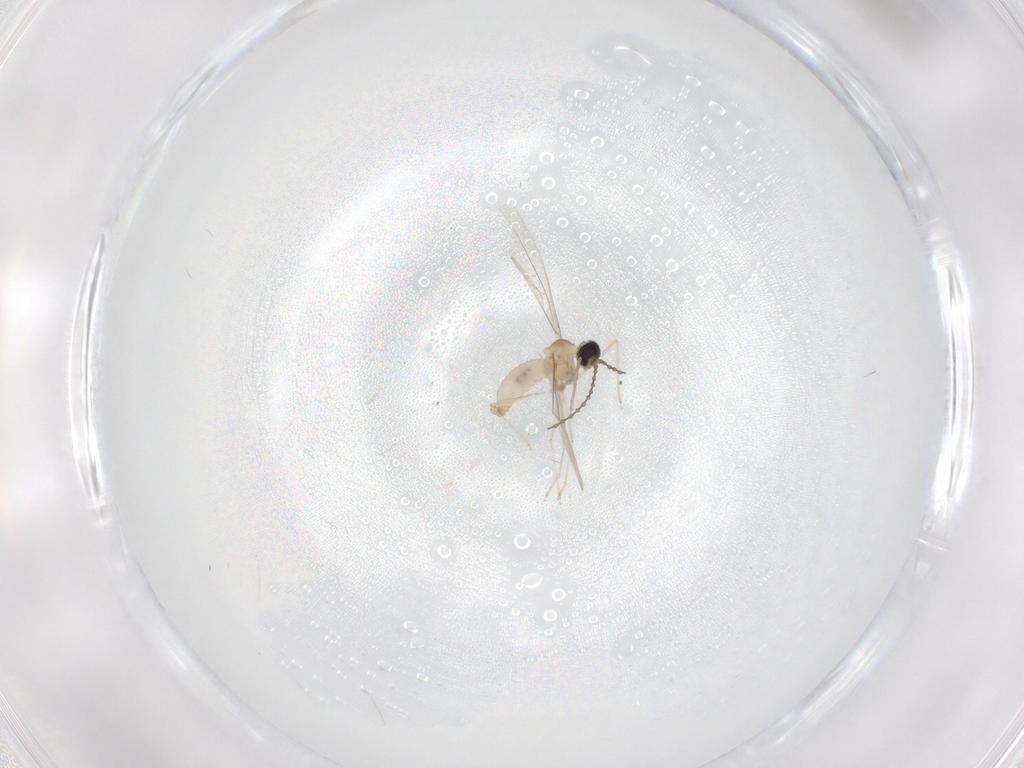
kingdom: Animalia
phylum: Arthropoda
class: Insecta
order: Diptera
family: Cecidomyiidae
